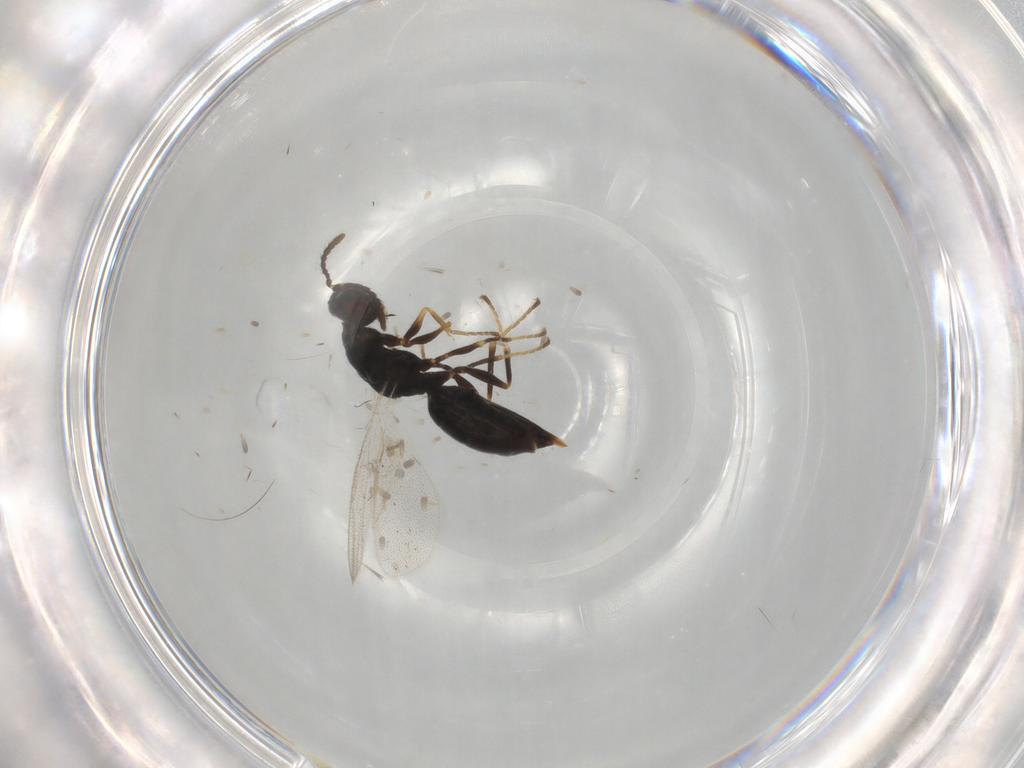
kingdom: Animalia
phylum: Arthropoda
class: Insecta
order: Hymenoptera
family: Eurytomidae
